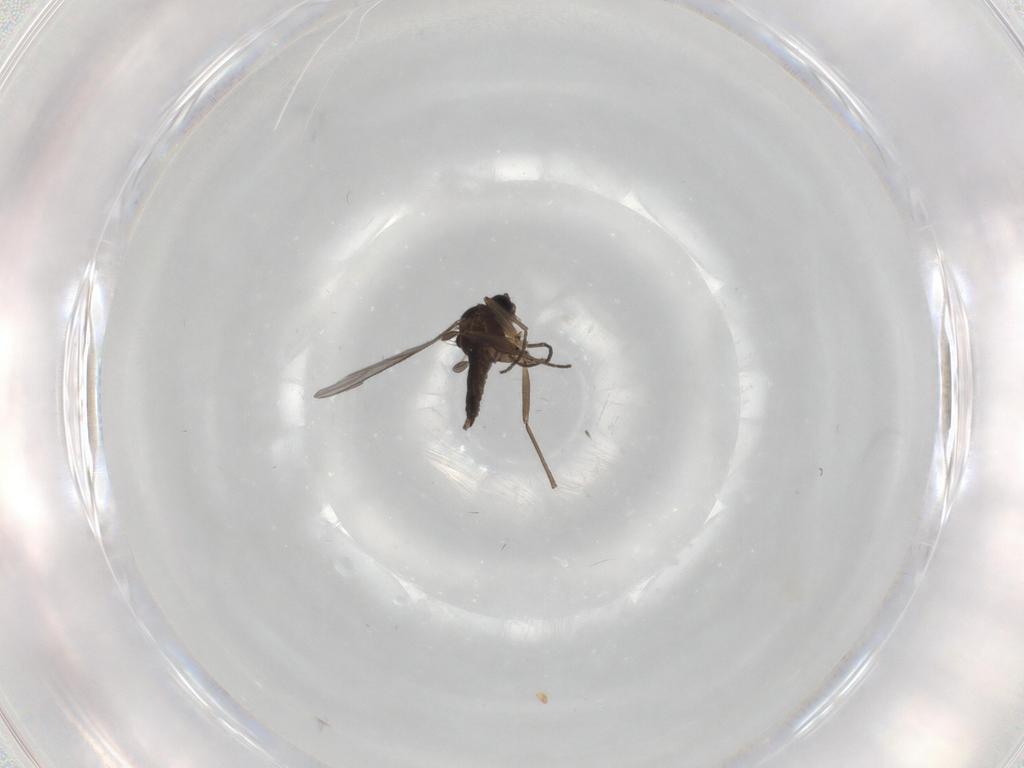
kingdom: Animalia
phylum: Arthropoda
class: Insecta
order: Diptera
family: Sciaridae
